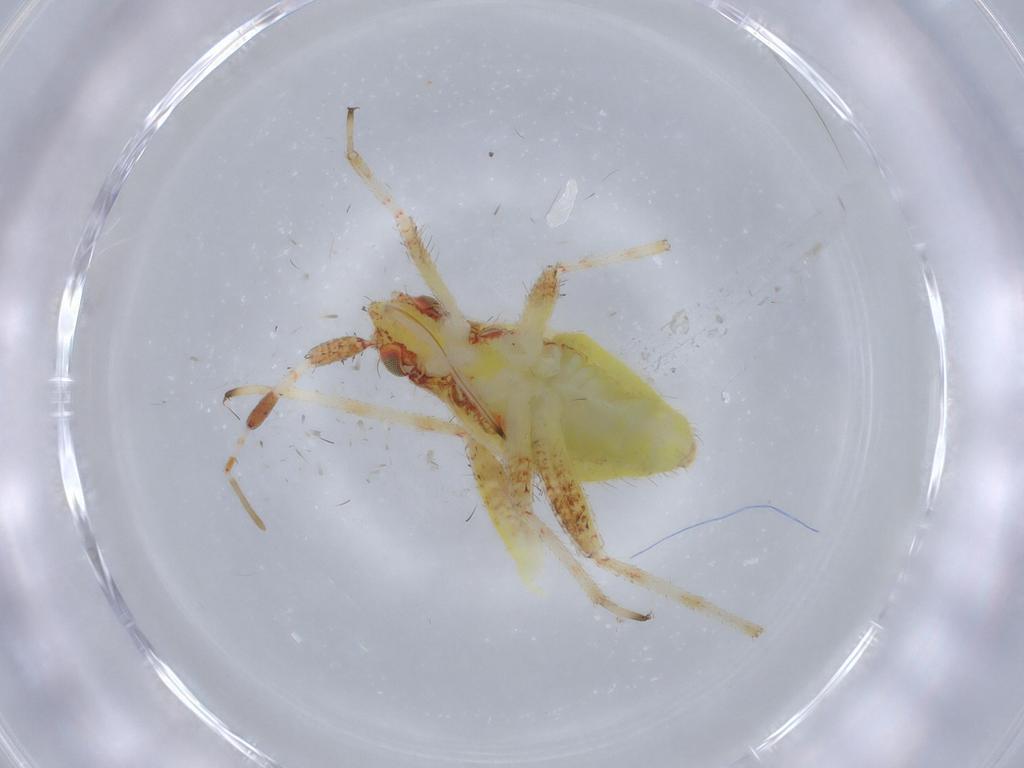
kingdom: Animalia
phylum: Arthropoda
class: Insecta
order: Hemiptera
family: Miridae
